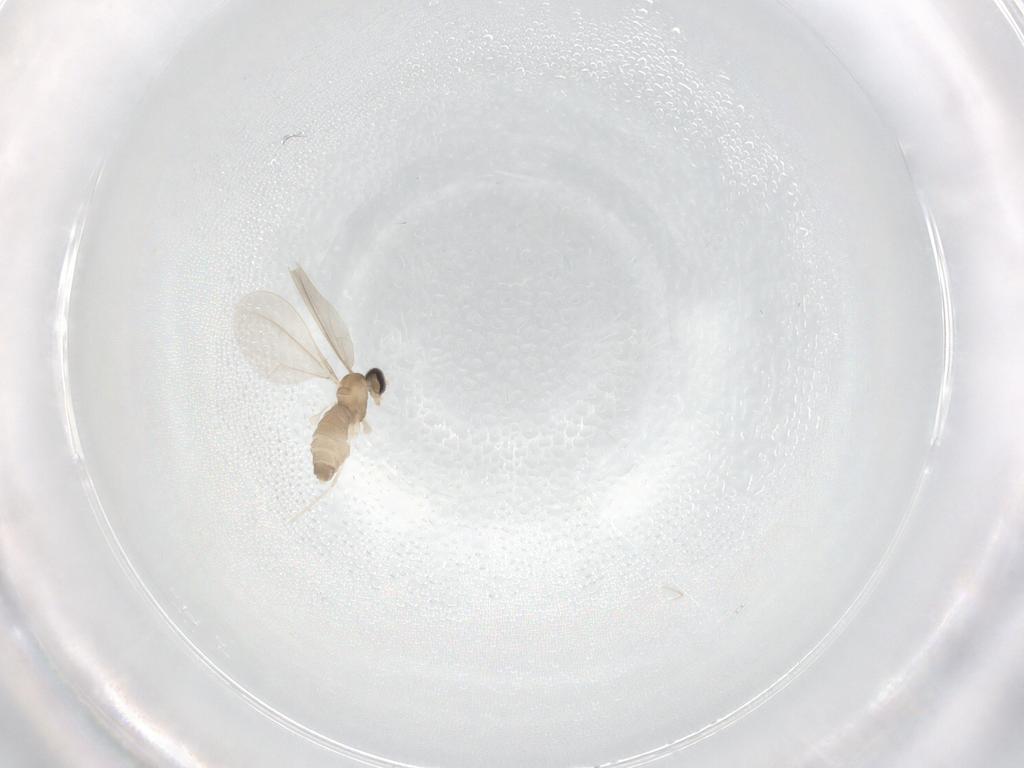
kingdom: Animalia
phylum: Arthropoda
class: Insecta
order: Diptera
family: Cecidomyiidae
